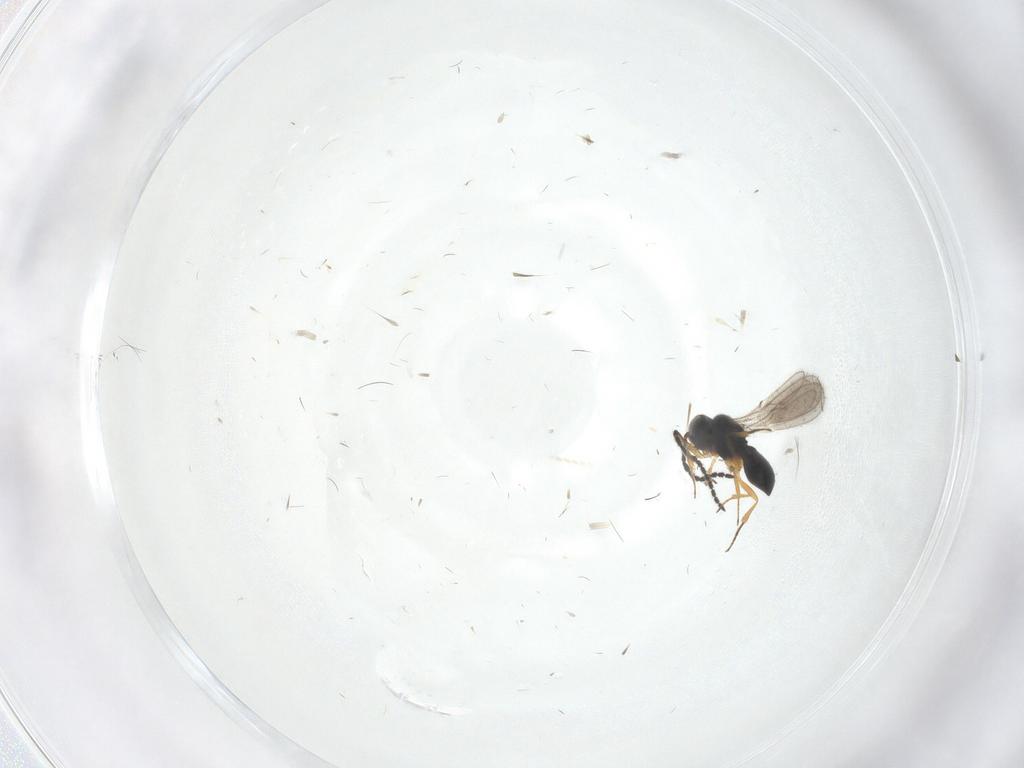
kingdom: Animalia
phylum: Arthropoda
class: Insecta
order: Hymenoptera
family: Scelionidae
